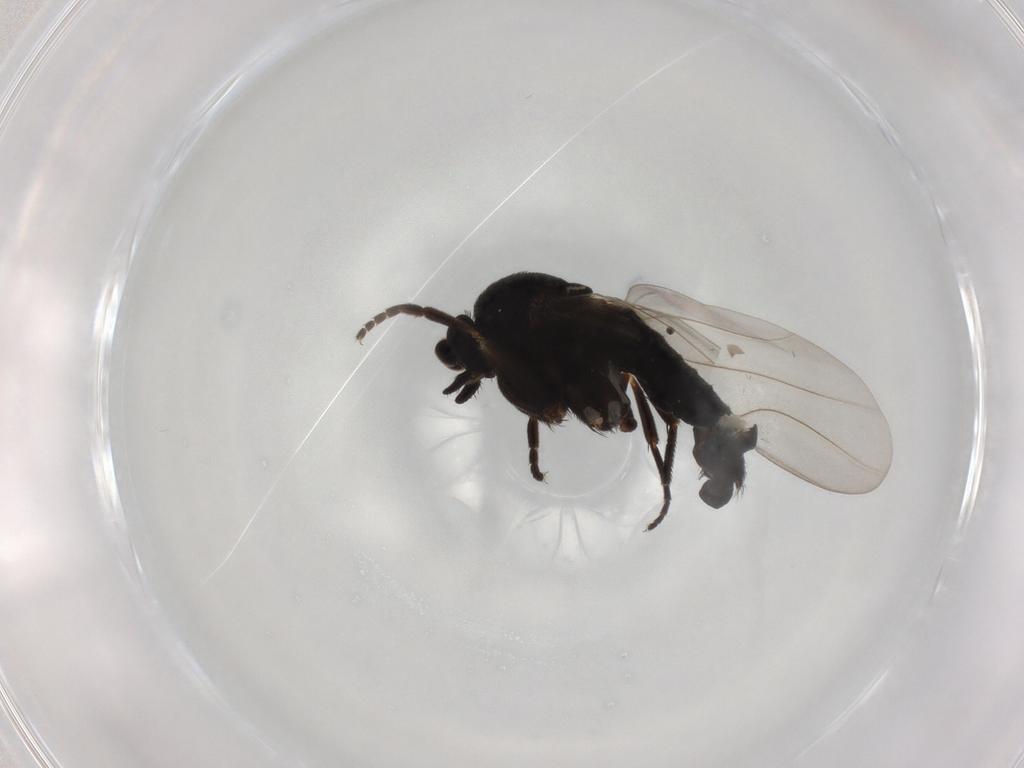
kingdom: Animalia
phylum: Arthropoda
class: Insecta
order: Diptera
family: Phoridae
